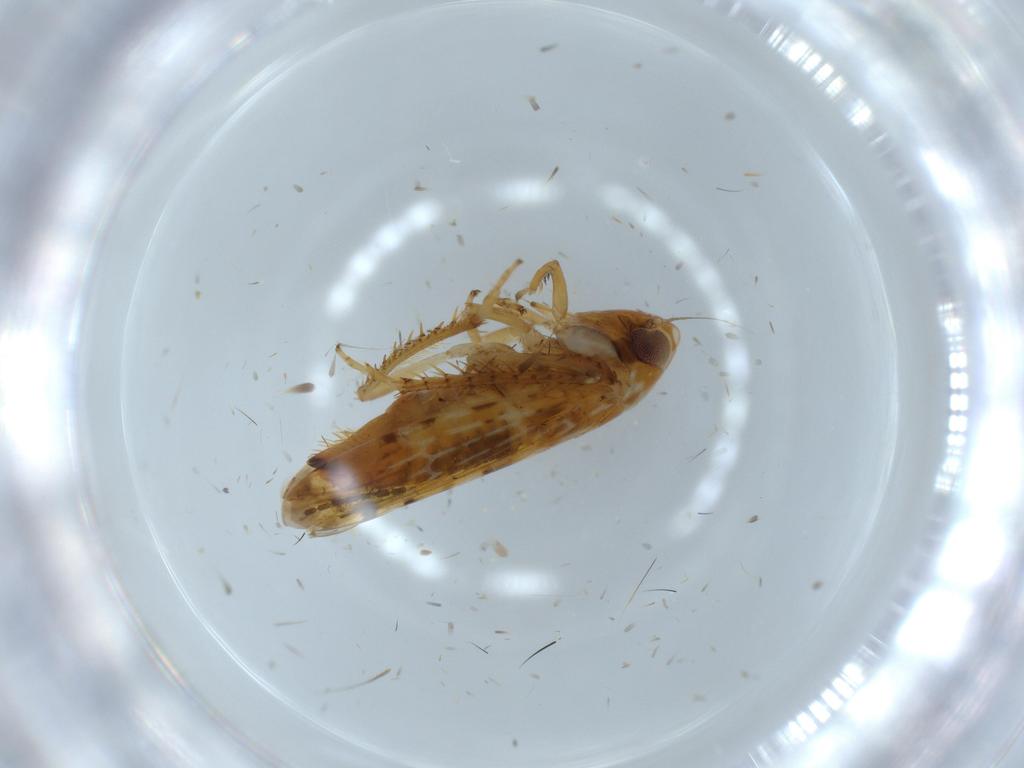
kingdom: Animalia
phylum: Arthropoda
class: Insecta
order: Hemiptera
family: Cicadellidae
